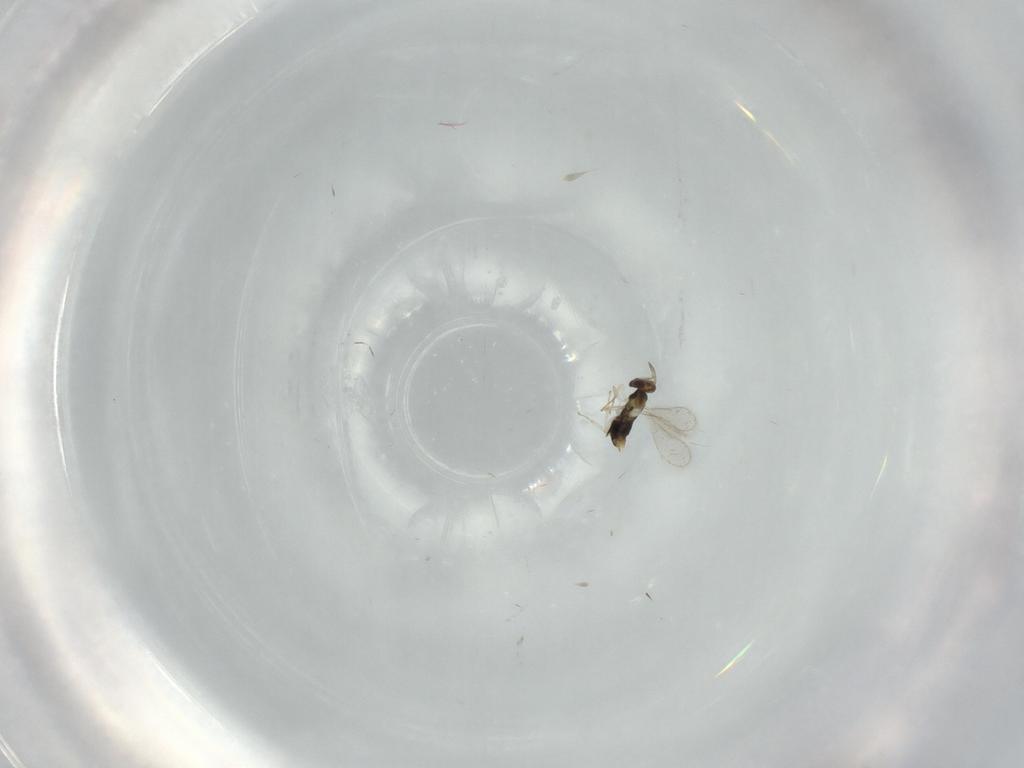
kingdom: Animalia
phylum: Arthropoda
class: Insecta
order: Hymenoptera
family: Aphelinidae
